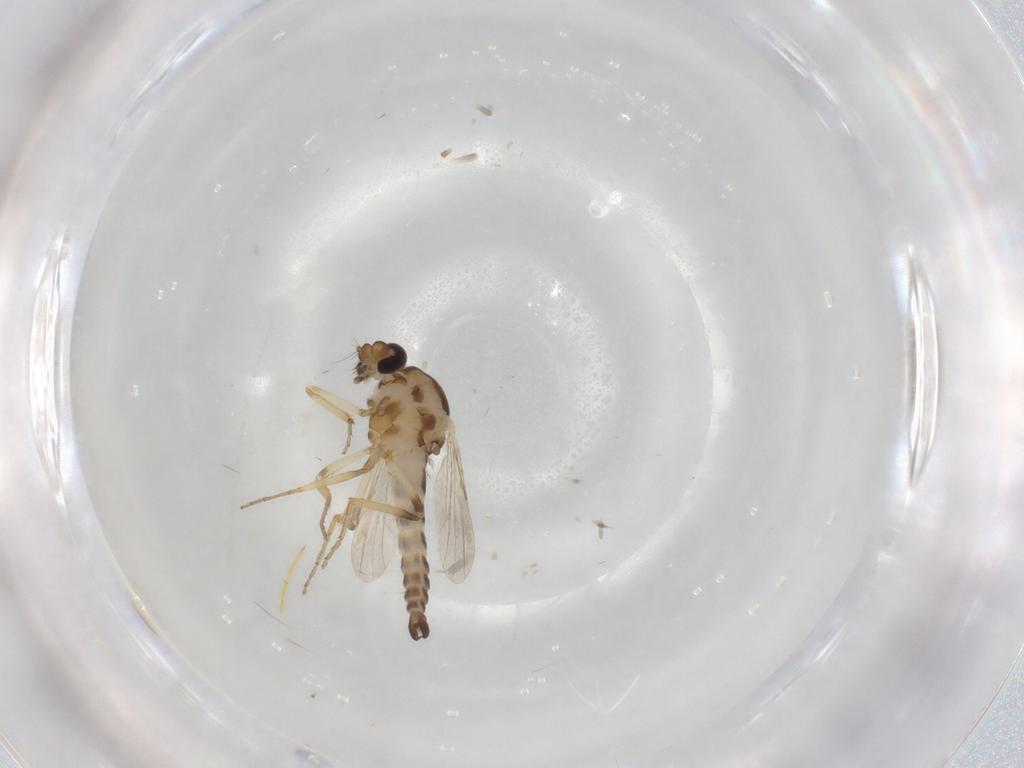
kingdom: Animalia
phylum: Arthropoda
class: Insecta
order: Diptera
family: Ceratopogonidae
